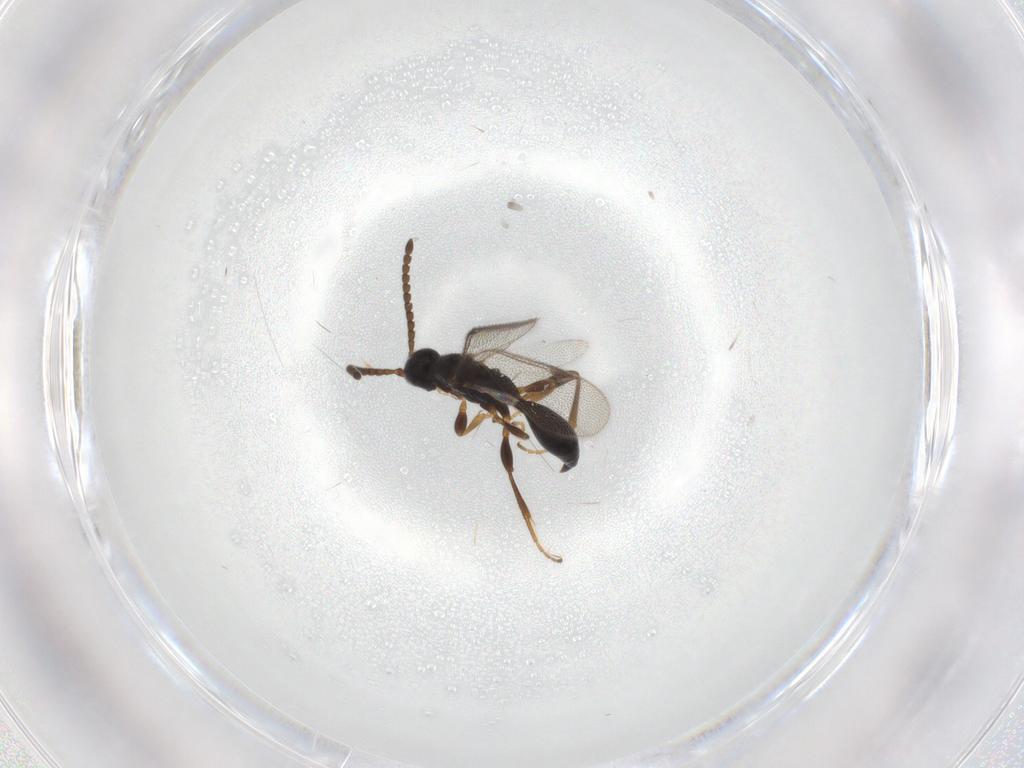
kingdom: Animalia
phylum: Arthropoda
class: Insecta
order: Hymenoptera
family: Proctotrupidae
